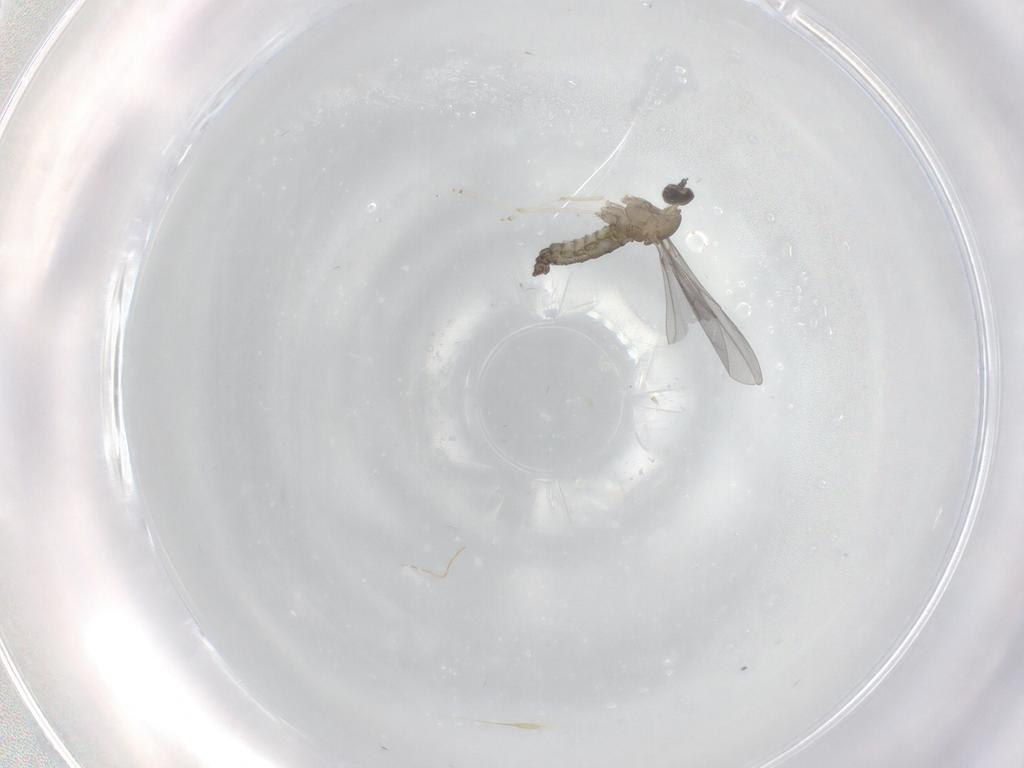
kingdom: Animalia
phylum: Arthropoda
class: Insecta
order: Diptera
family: Cecidomyiidae
